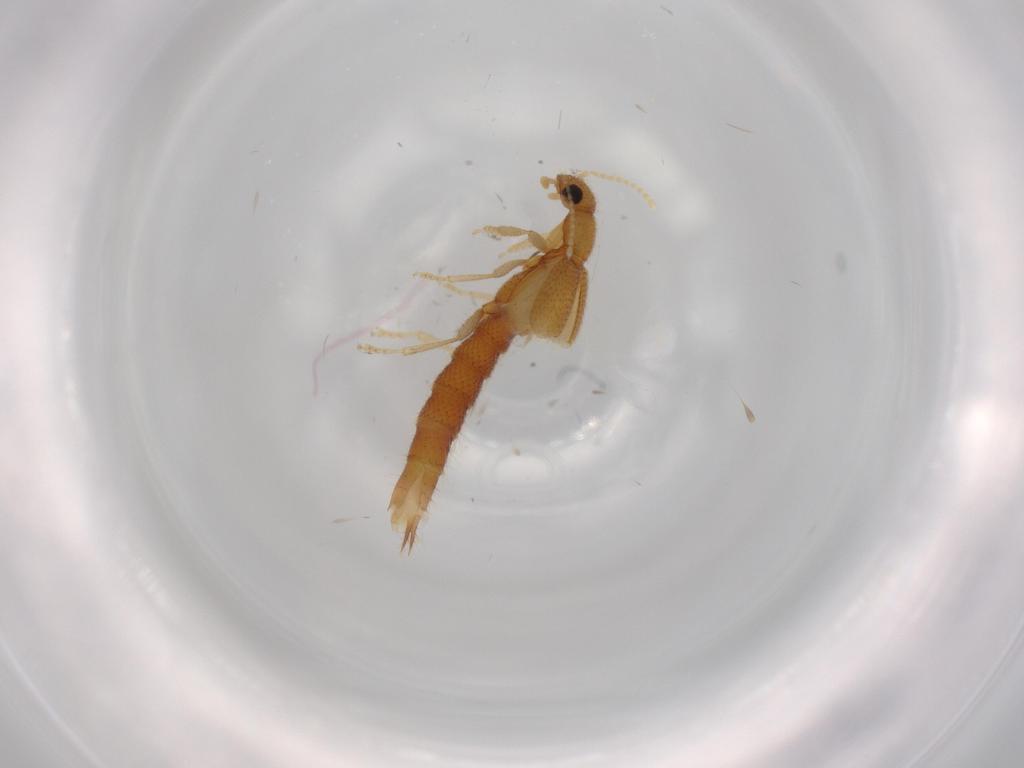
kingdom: Animalia
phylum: Arthropoda
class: Insecta
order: Coleoptera
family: Staphylinidae
